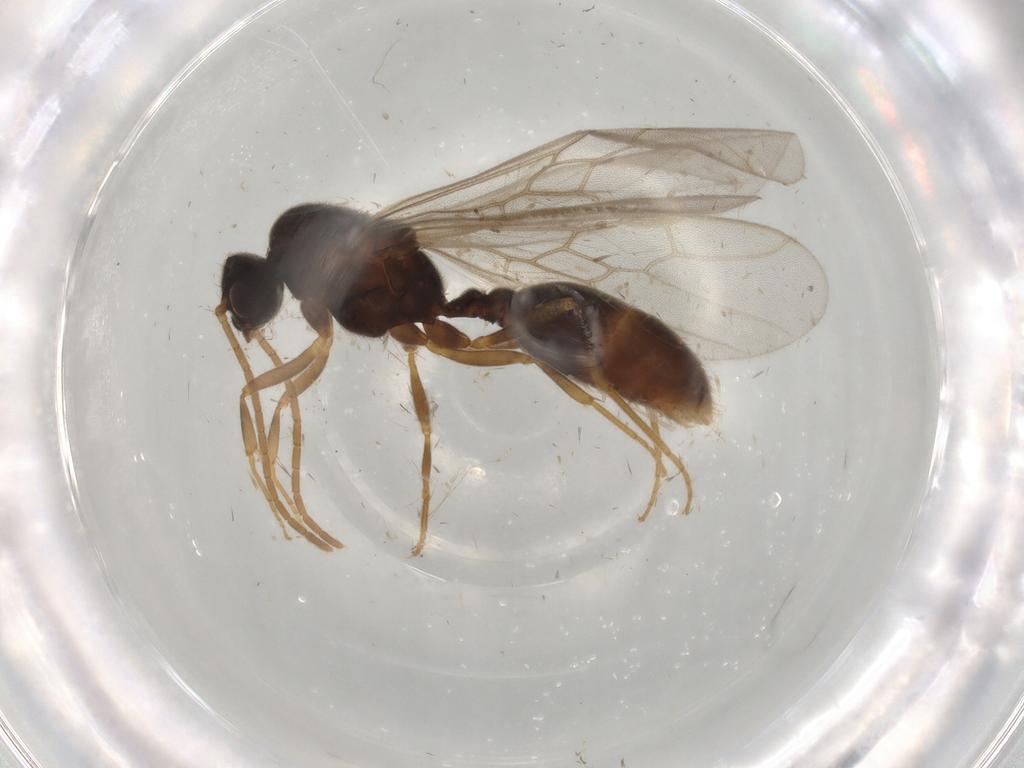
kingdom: Animalia
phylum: Arthropoda
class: Insecta
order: Hymenoptera
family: Formicidae
